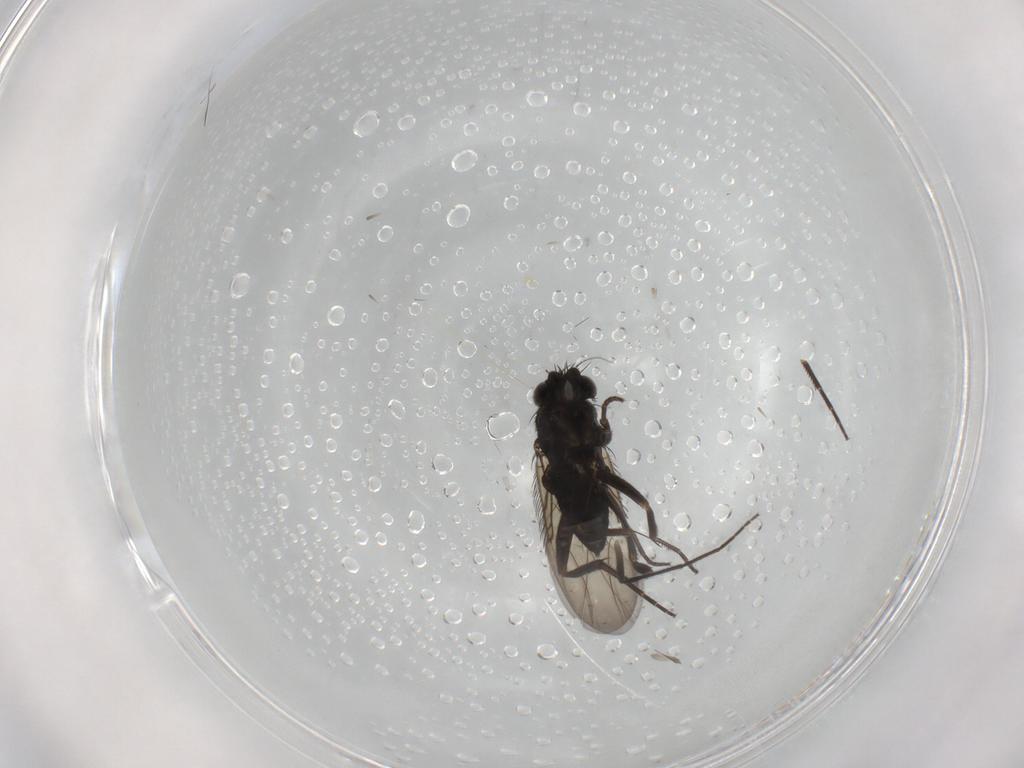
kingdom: Animalia
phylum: Arthropoda
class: Insecta
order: Diptera
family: Phoridae
